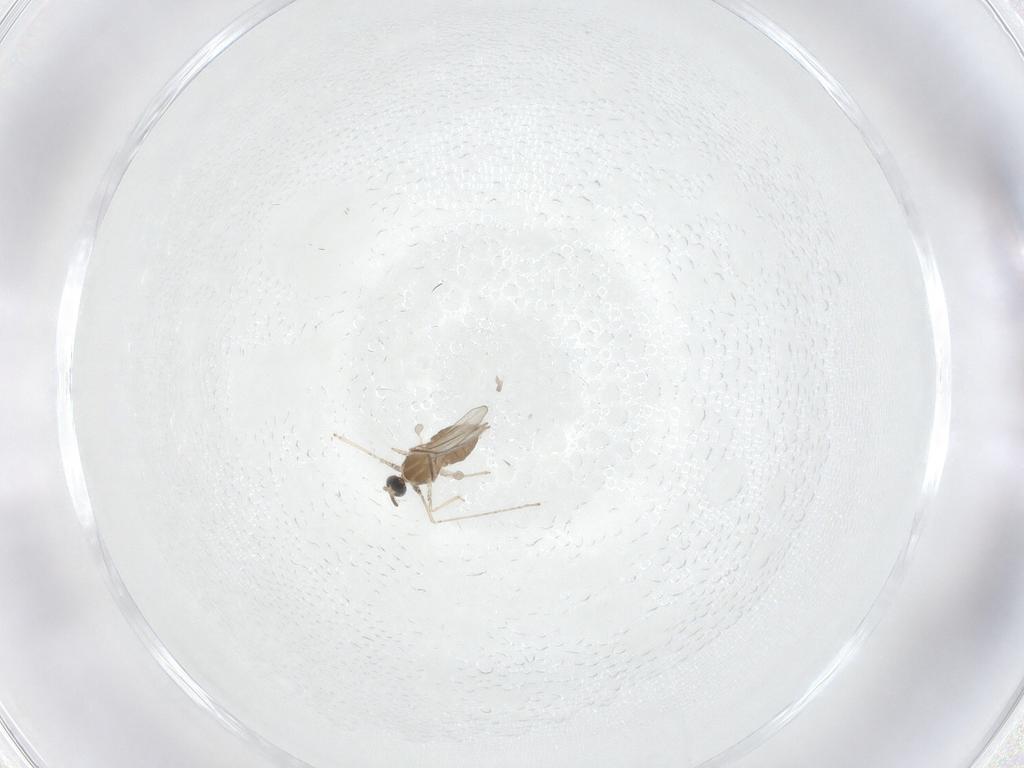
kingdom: Animalia
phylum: Arthropoda
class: Insecta
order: Diptera
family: Cecidomyiidae
